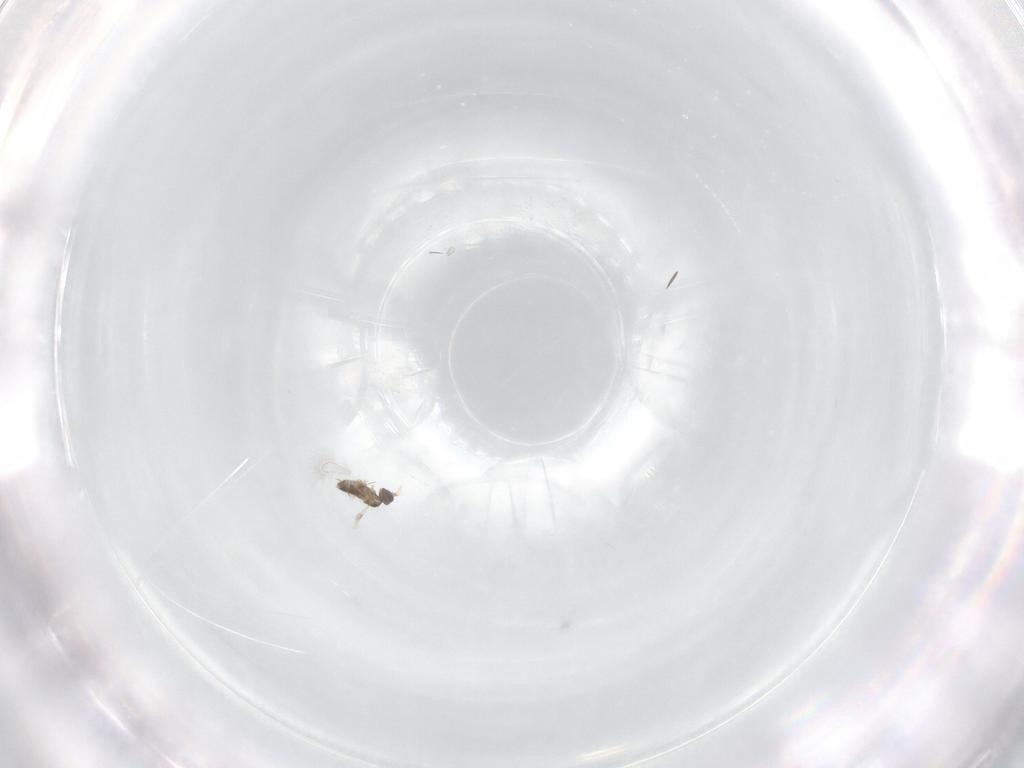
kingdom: Animalia
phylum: Arthropoda
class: Insecta
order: Hymenoptera
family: Mymaridae
